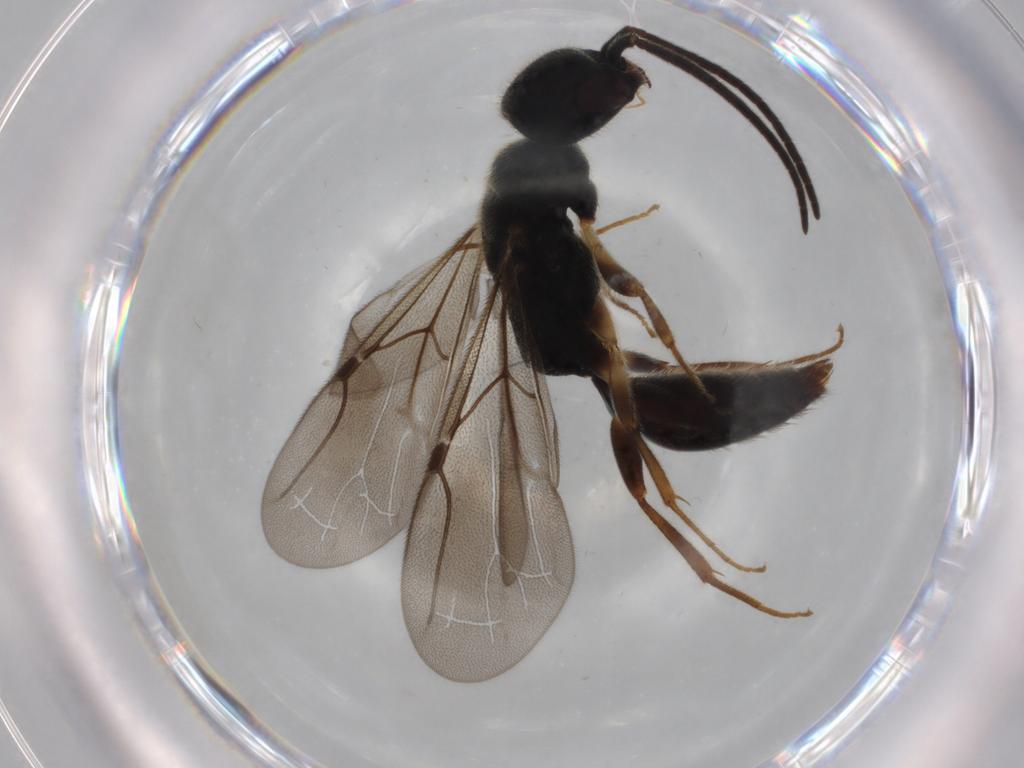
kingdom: Animalia
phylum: Arthropoda
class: Insecta
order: Hymenoptera
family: Bethylidae
